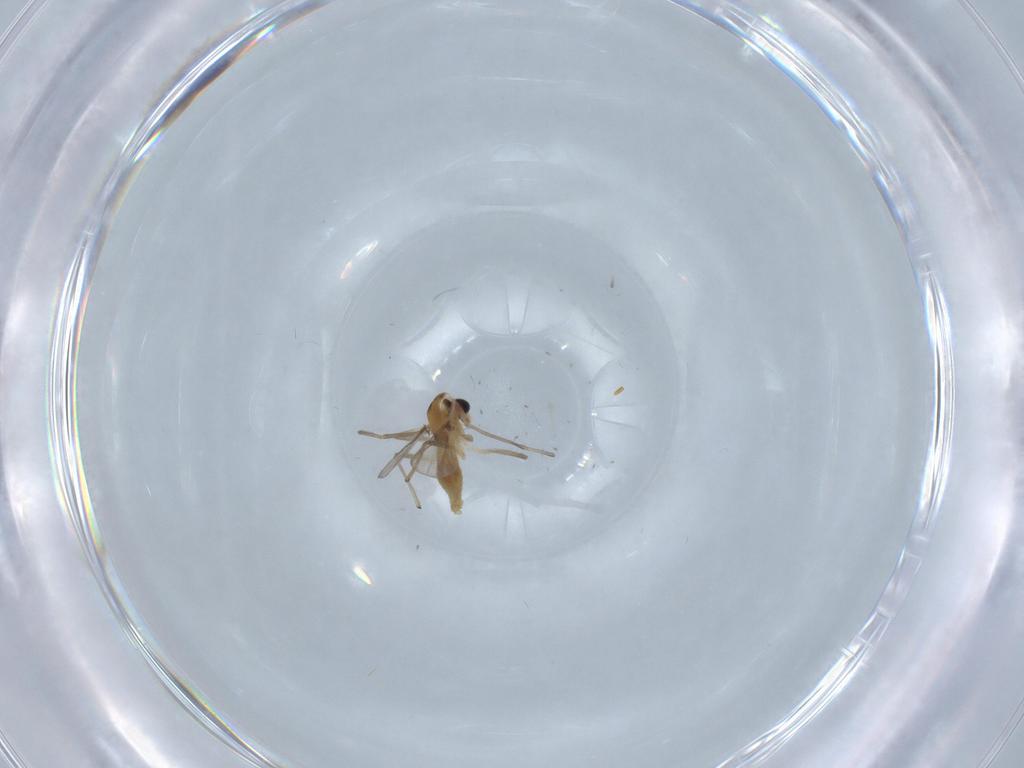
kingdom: Animalia
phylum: Arthropoda
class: Insecta
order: Diptera
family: Chironomidae
